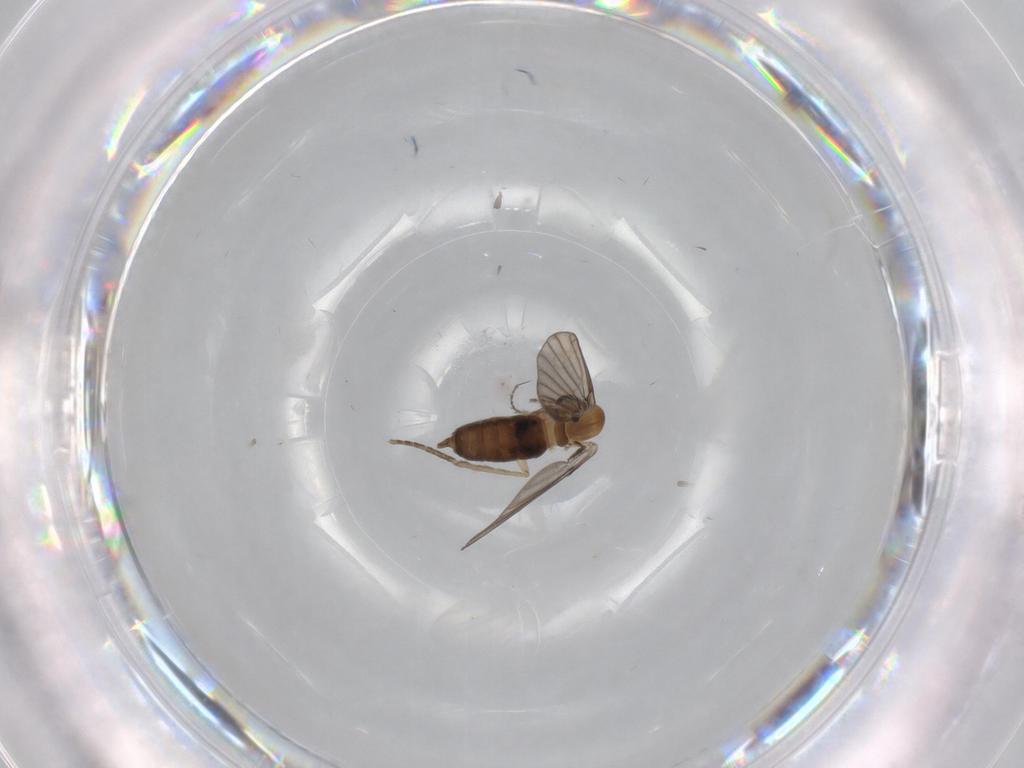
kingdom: Animalia
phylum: Arthropoda
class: Insecta
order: Diptera
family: Sciaridae
